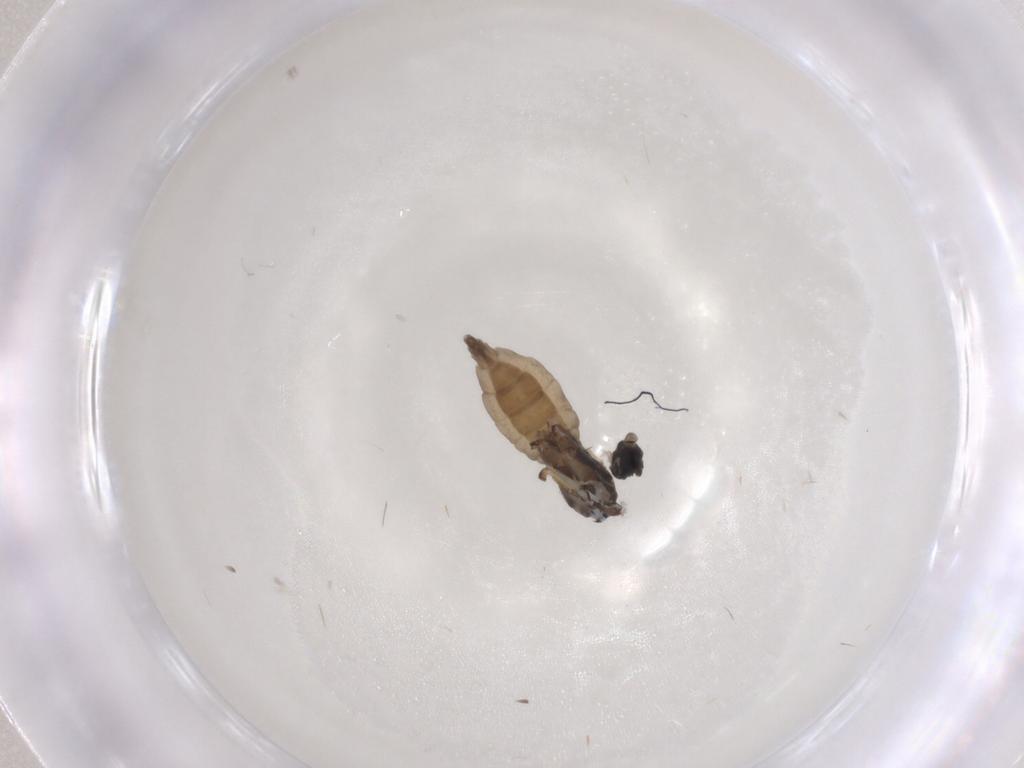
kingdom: Animalia
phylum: Arthropoda
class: Insecta
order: Diptera
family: Sciaridae
